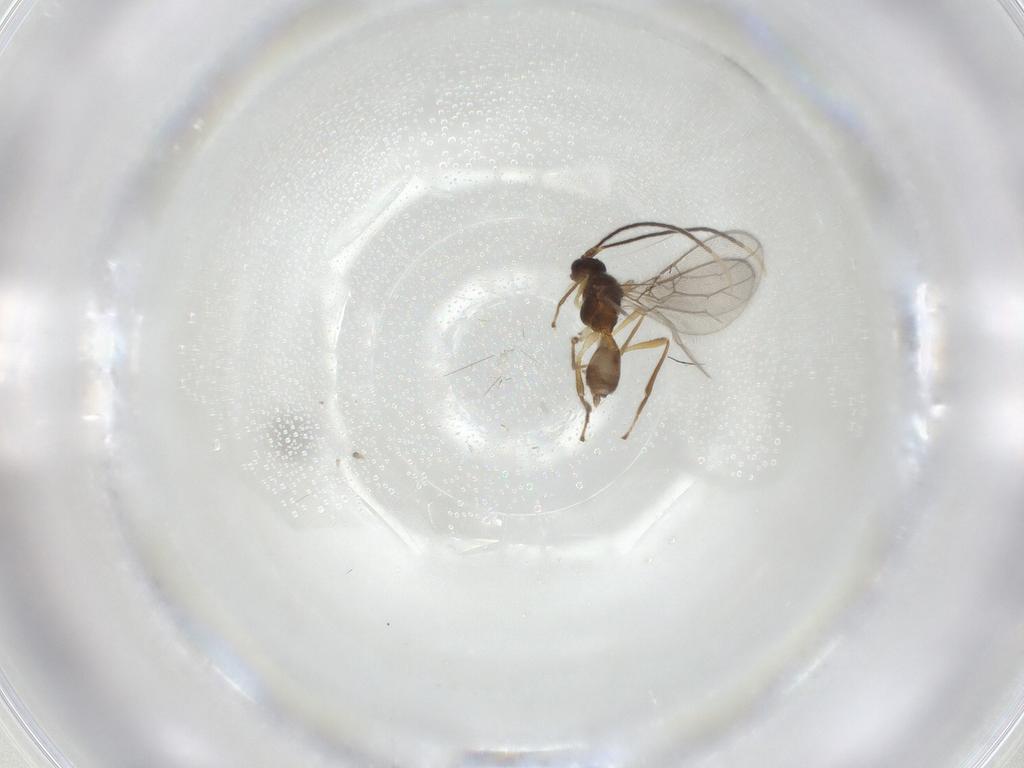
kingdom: Animalia
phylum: Arthropoda
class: Insecta
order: Hymenoptera
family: Braconidae
